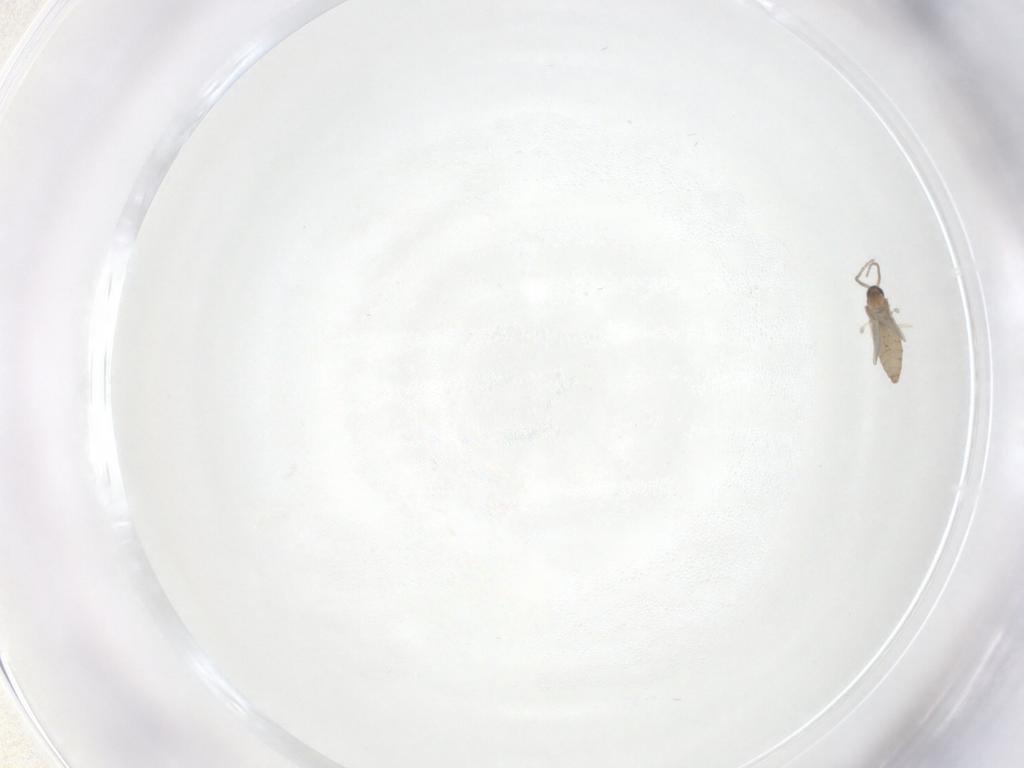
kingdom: Animalia
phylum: Arthropoda
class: Insecta
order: Diptera
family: Cecidomyiidae
